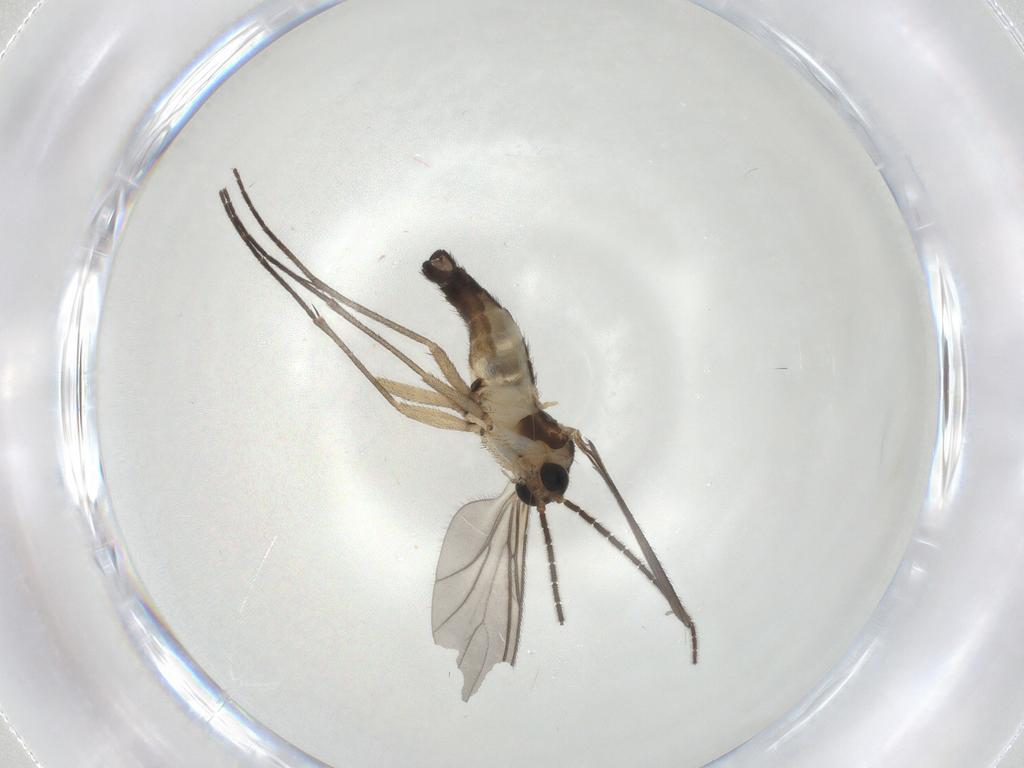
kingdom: Animalia
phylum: Arthropoda
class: Insecta
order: Diptera
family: Sciaridae
